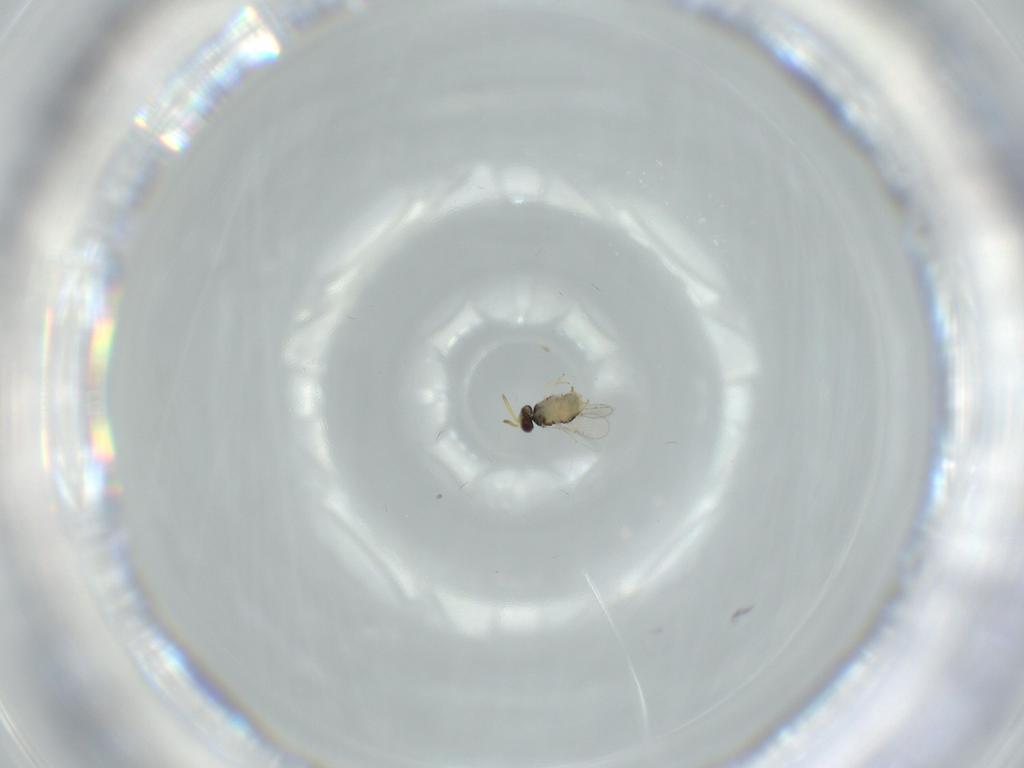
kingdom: Animalia
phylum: Arthropoda
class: Insecta
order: Hymenoptera
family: Aphelinidae
